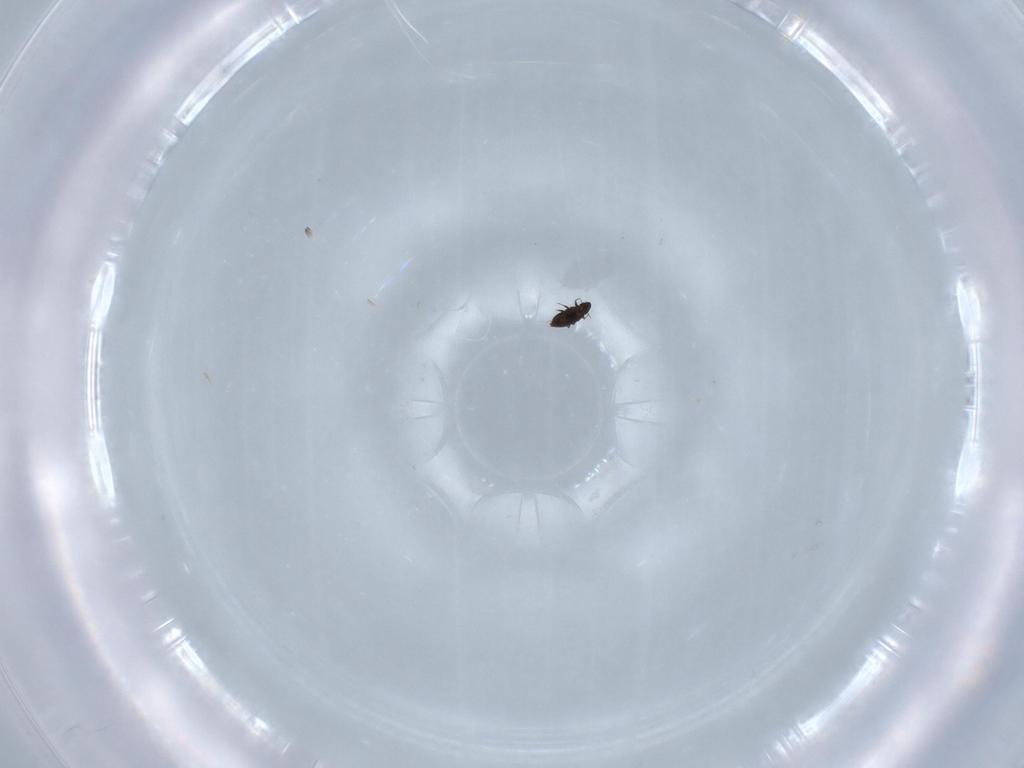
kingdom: Animalia
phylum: Arthropoda
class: Insecta
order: Coleoptera
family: Ripiphoridae
